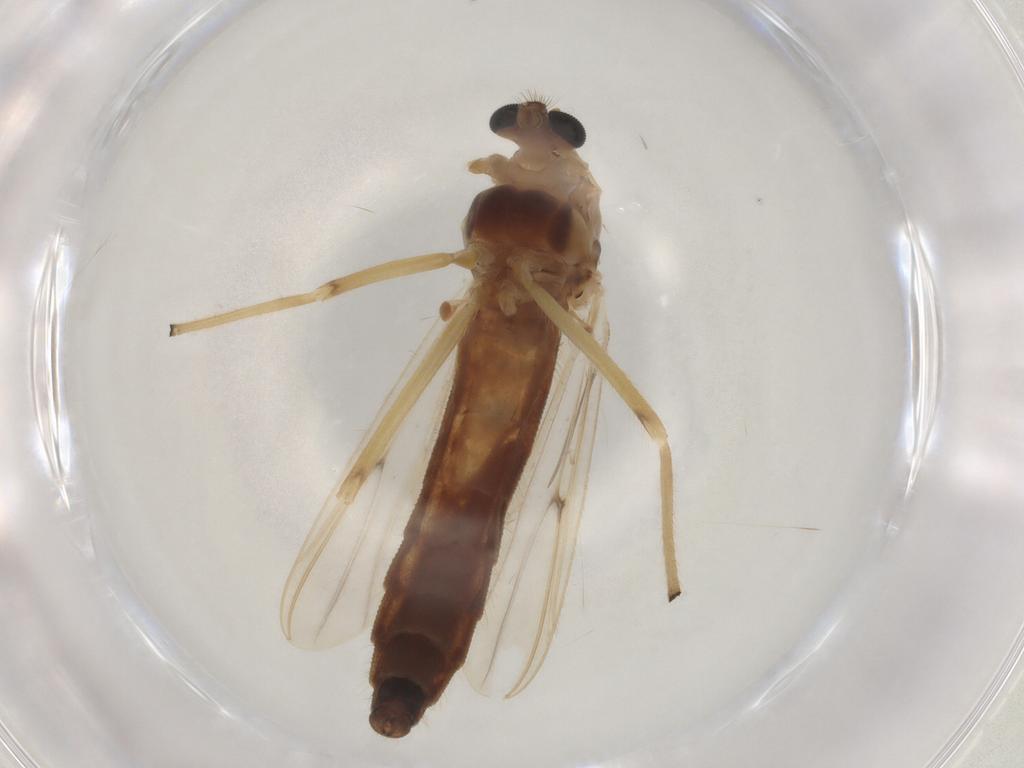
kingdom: Animalia
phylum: Arthropoda
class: Insecta
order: Diptera
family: Chironomidae
